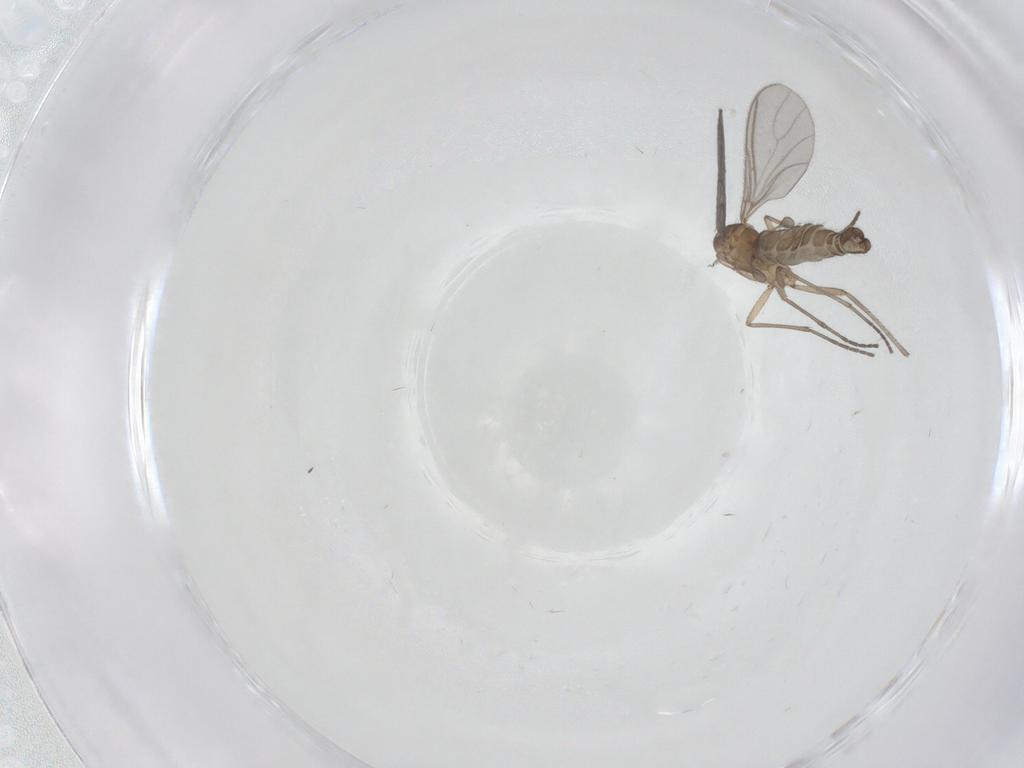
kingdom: Animalia
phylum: Arthropoda
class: Insecta
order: Diptera
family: Sciaridae
